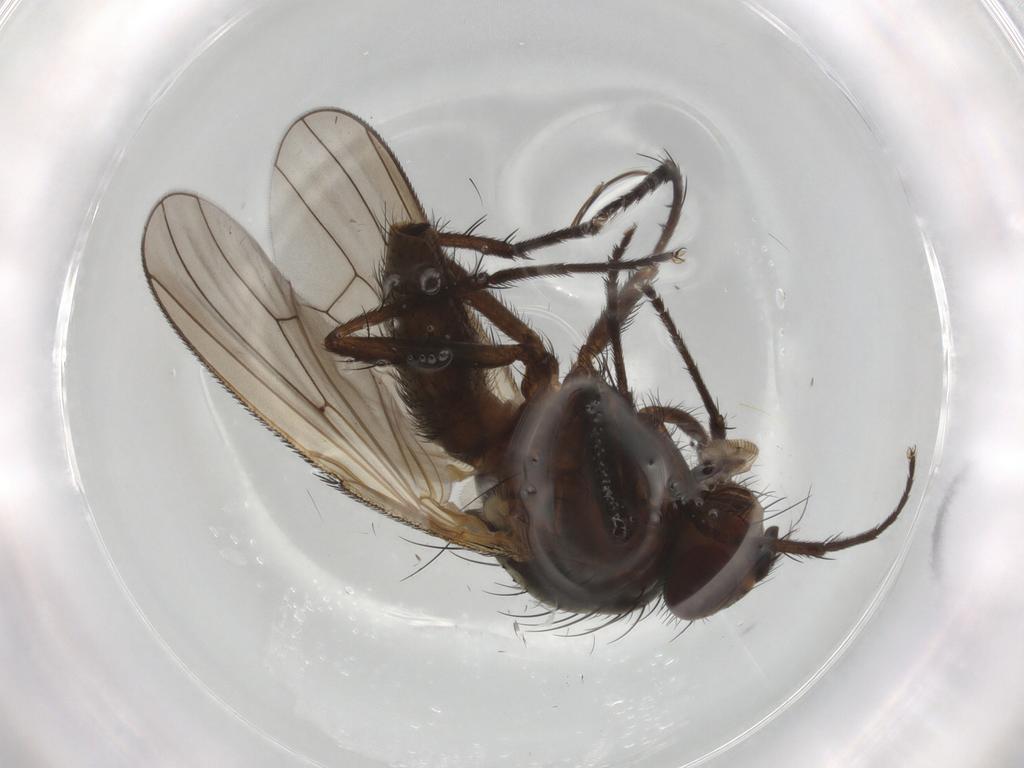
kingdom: Animalia
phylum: Arthropoda
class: Insecta
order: Diptera
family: Anthomyiidae
